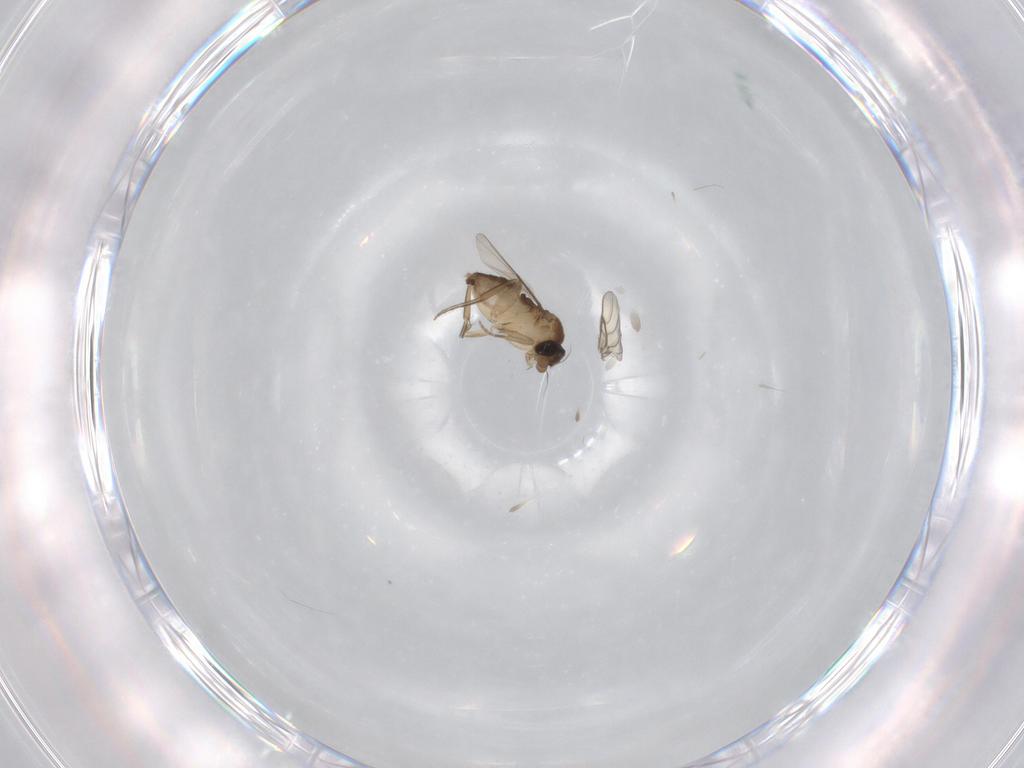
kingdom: Animalia
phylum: Arthropoda
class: Insecta
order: Diptera
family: Phoridae
